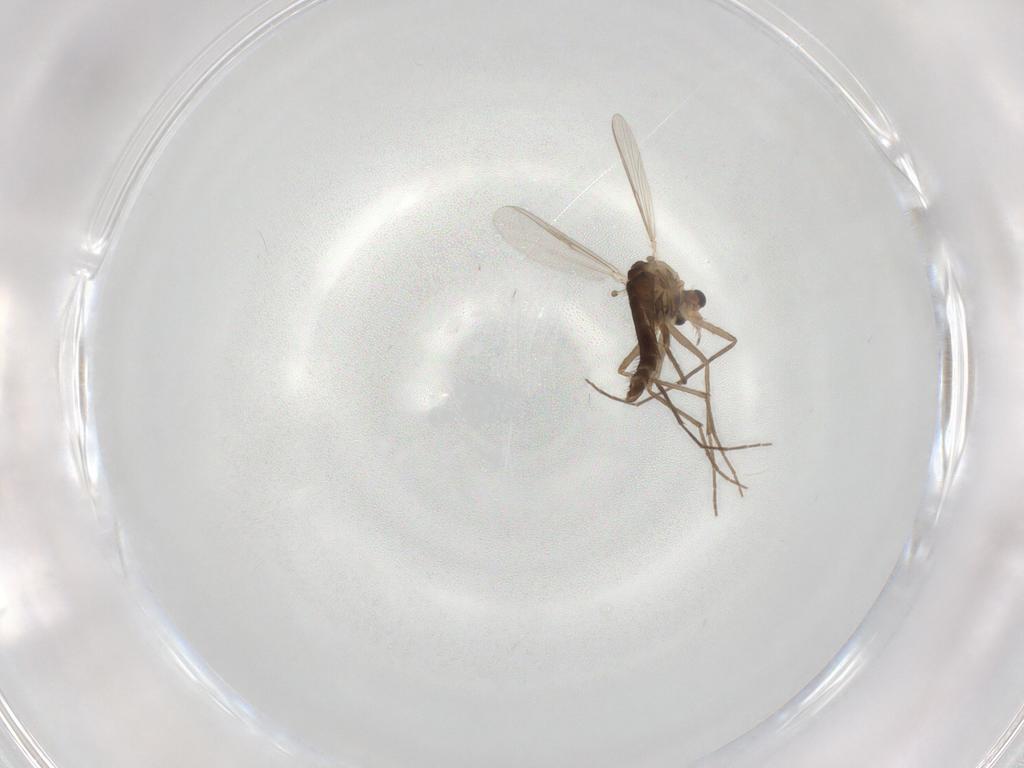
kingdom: Animalia
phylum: Arthropoda
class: Insecta
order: Diptera
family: Chironomidae
